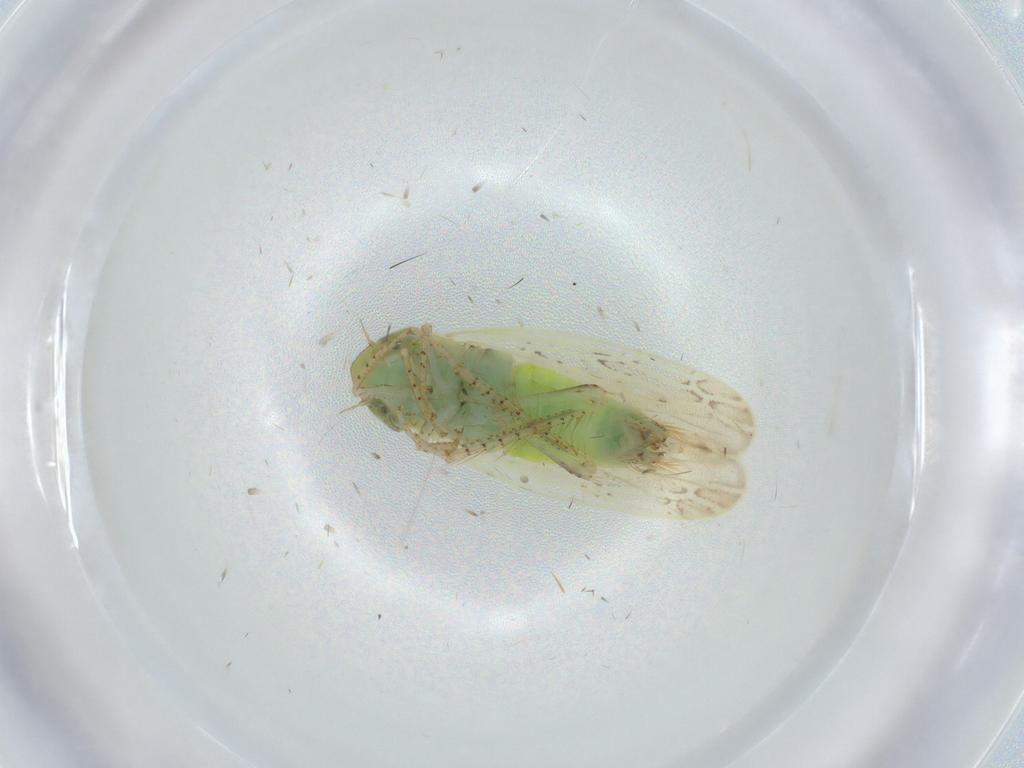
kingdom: Animalia
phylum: Arthropoda
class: Insecta
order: Hemiptera
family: Cicadellidae
